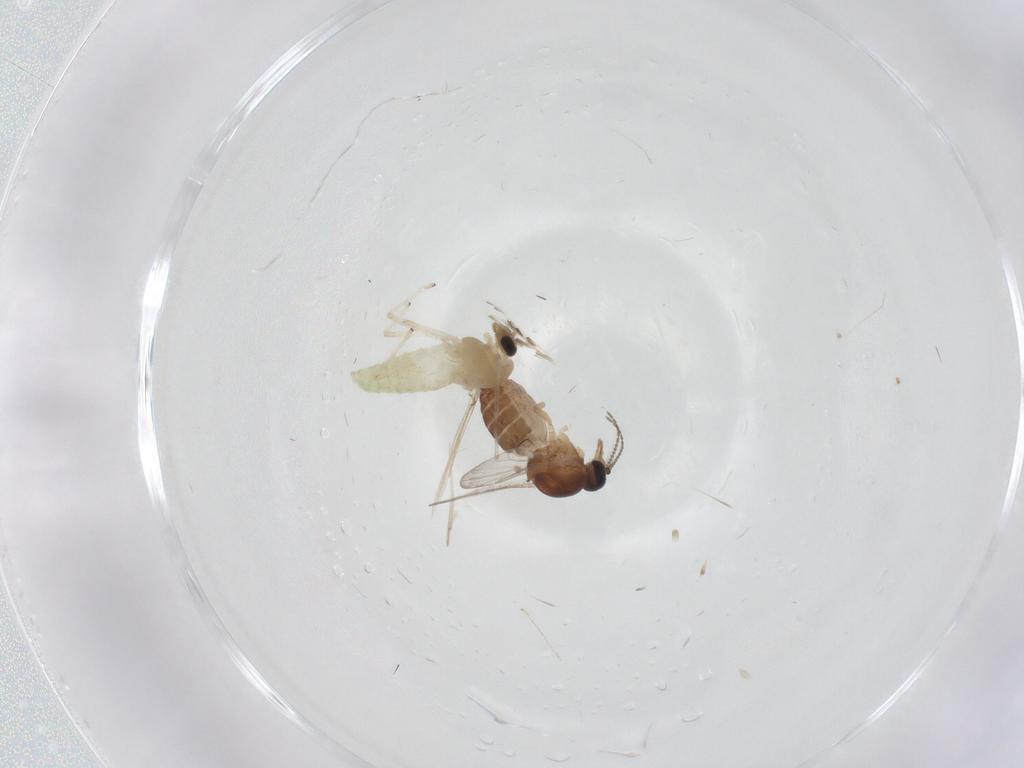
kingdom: Animalia
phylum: Arthropoda
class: Insecta
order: Diptera
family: Ceratopogonidae
